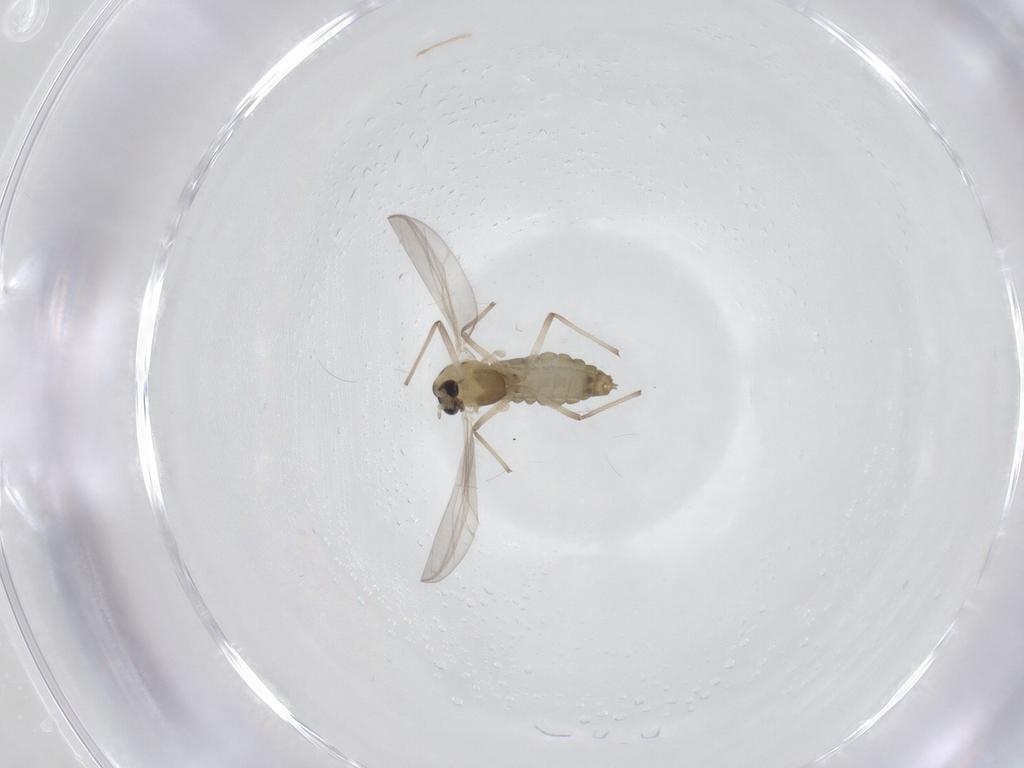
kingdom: Animalia
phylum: Arthropoda
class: Insecta
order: Diptera
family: Chironomidae
